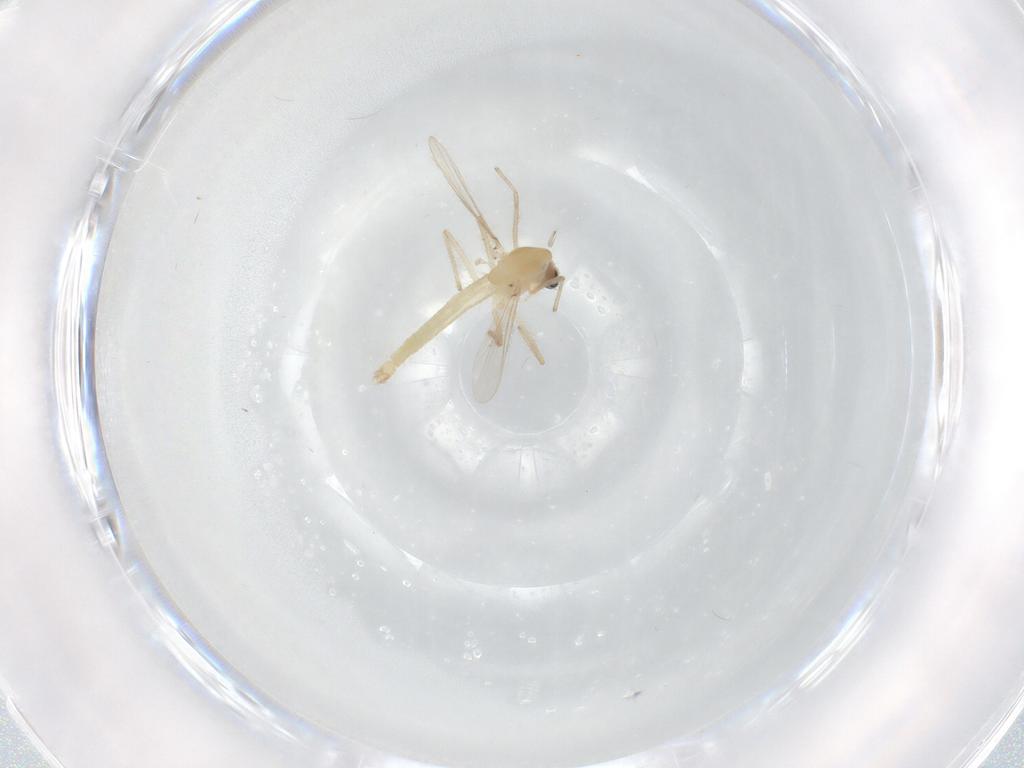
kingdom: Animalia
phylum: Arthropoda
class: Insecta
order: Diptera
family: Chironomidae
